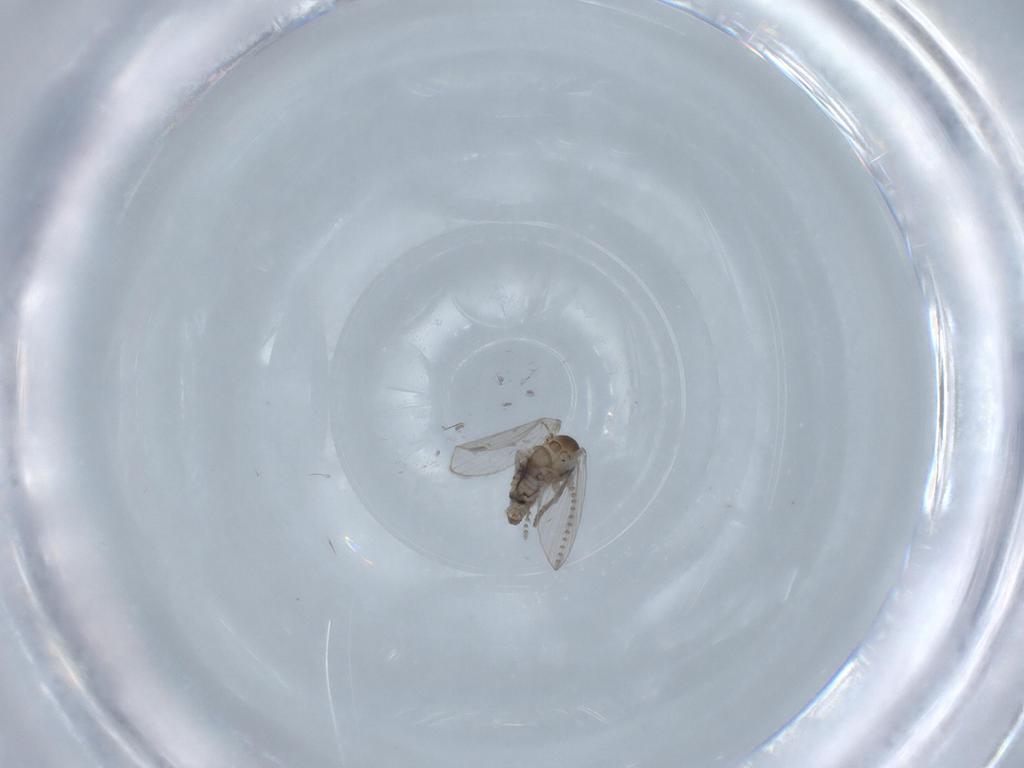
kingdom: Animalia
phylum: Arthropoda
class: Insecta
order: Diptera
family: Psychodidae
